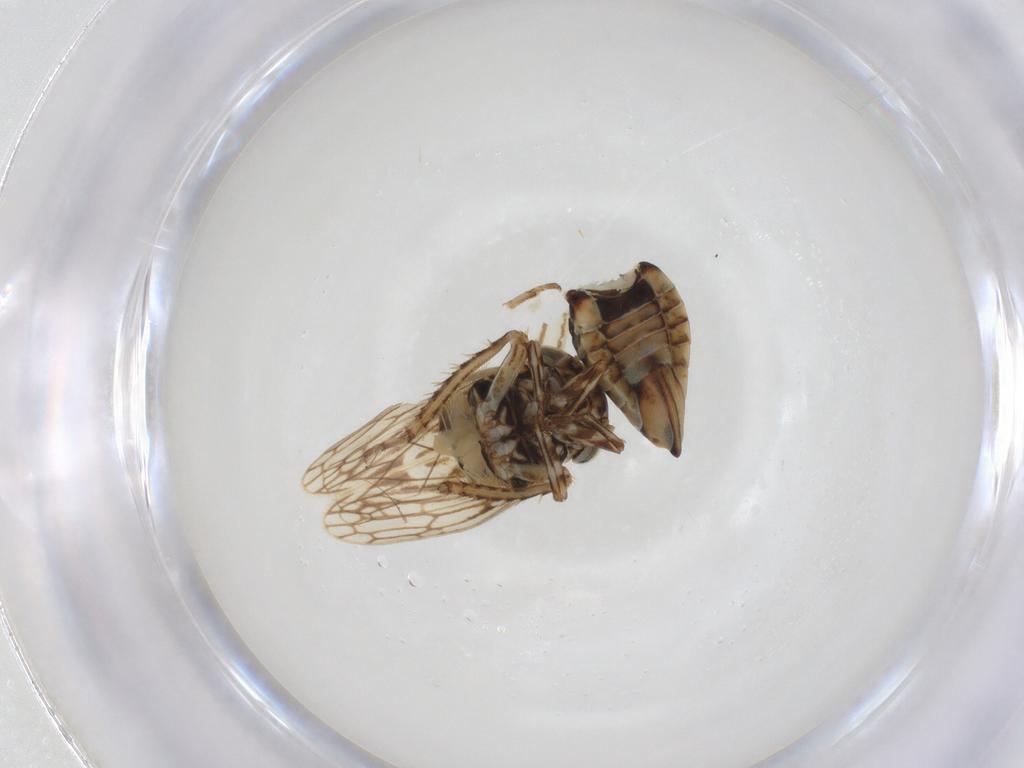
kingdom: Animalia
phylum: Arthropoda
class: Insecta
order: Hemiptera
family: Cicadellidae
